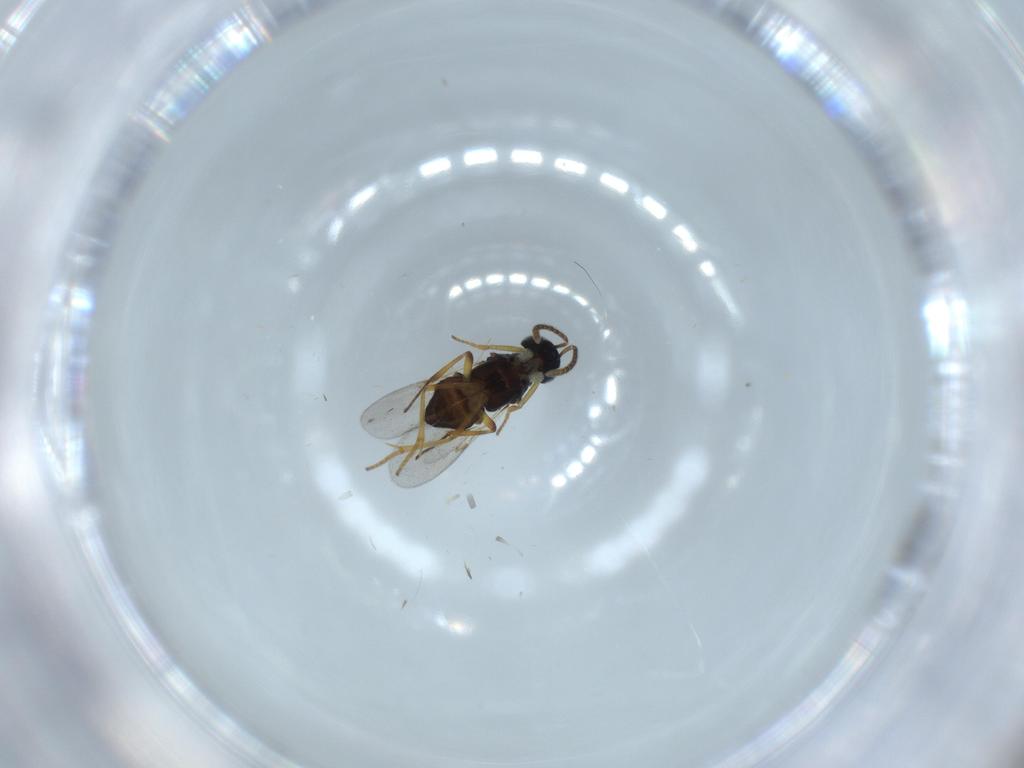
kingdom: Animalia
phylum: Arthropoda
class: Insecta
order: Hymenoptera
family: Encyrtidae
